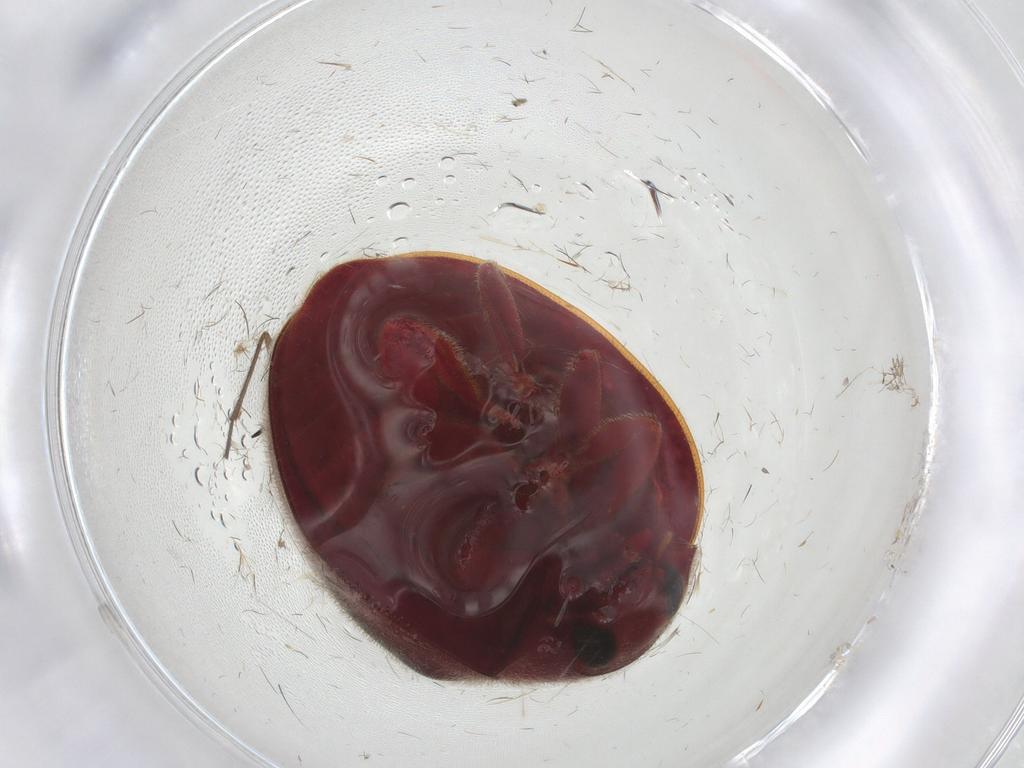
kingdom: Animalia
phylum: Arthropoda
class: Insecta
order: Coleoptera
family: Coccinellidae
